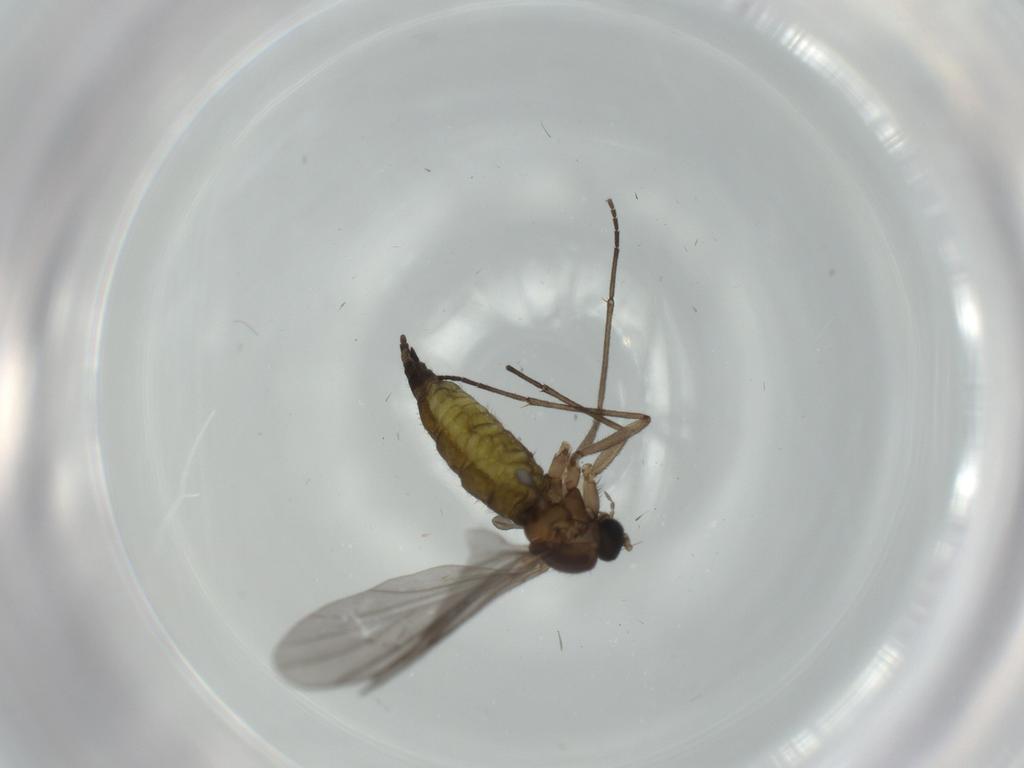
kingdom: Animalia
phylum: Arthropoda
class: Insecta
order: Diptera
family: Sciaridae
